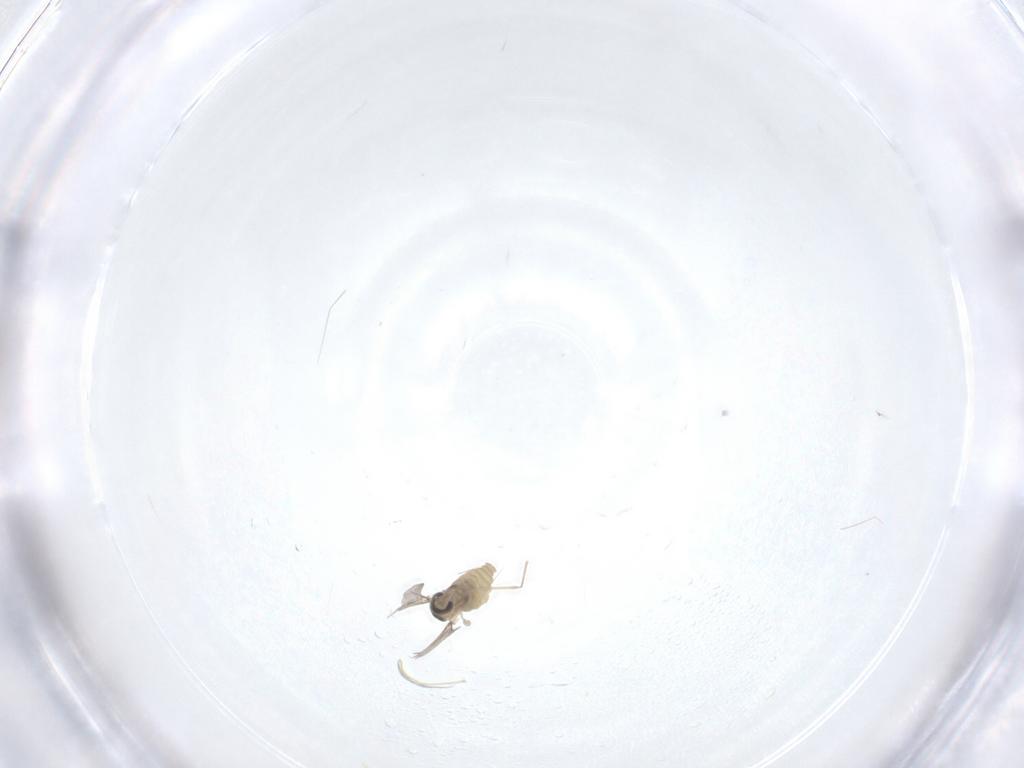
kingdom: Animalia
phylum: Arthropoda
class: Insecta
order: Diptera
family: Cecidomyiidae
